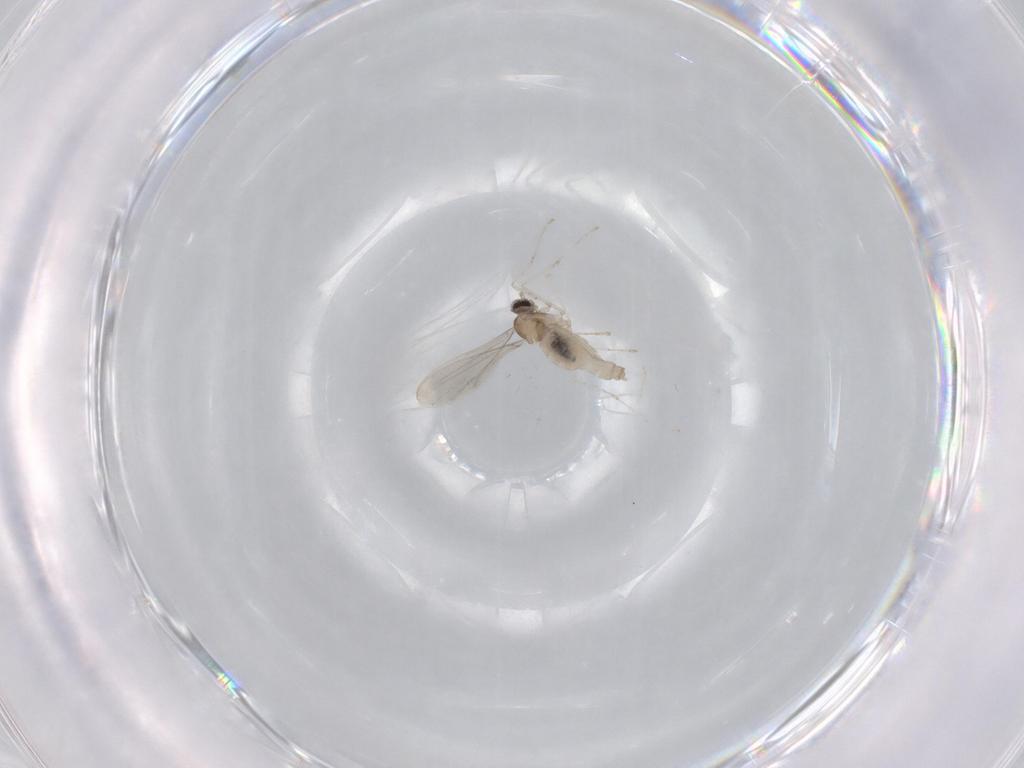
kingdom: Animalia
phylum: Arthropoda
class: Insecta
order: Diptera
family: Cecidomyiidae
